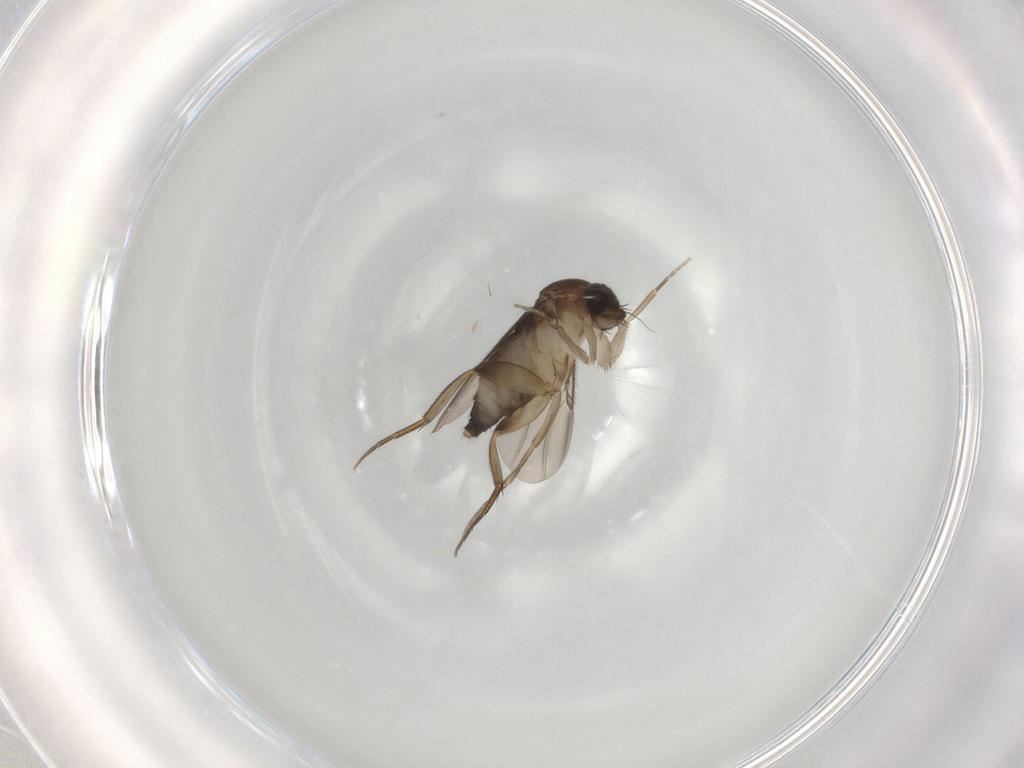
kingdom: Animalia
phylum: Arthropoda
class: Insecta
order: Diptera
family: Phoridae
